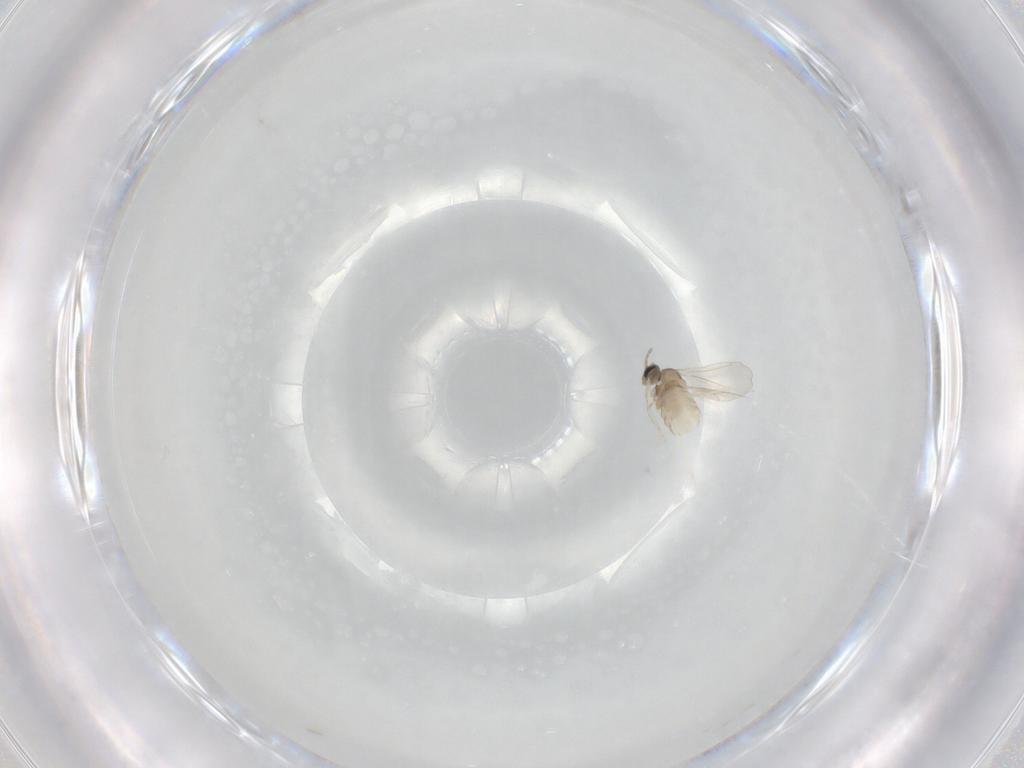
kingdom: Animalia
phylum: Arthropoda
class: Insecta
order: Diptera
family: Cecidomyiidae
